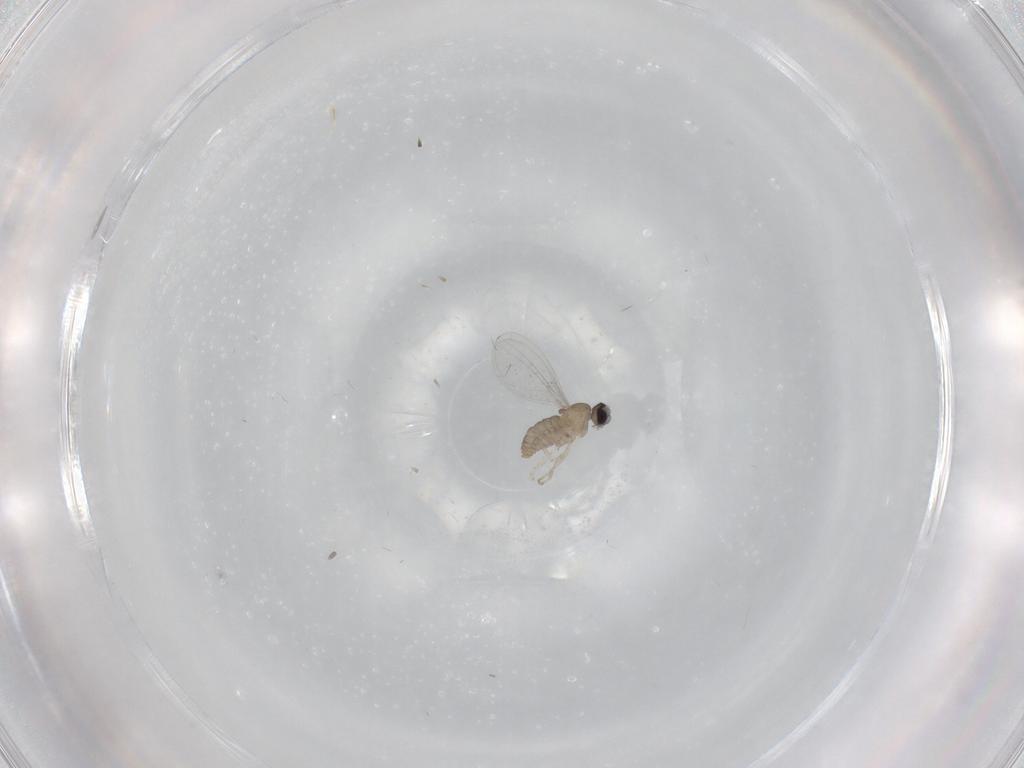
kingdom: Animalia
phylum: Arthropoda
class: Insecta
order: Diptera
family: Cecidomyiidae
